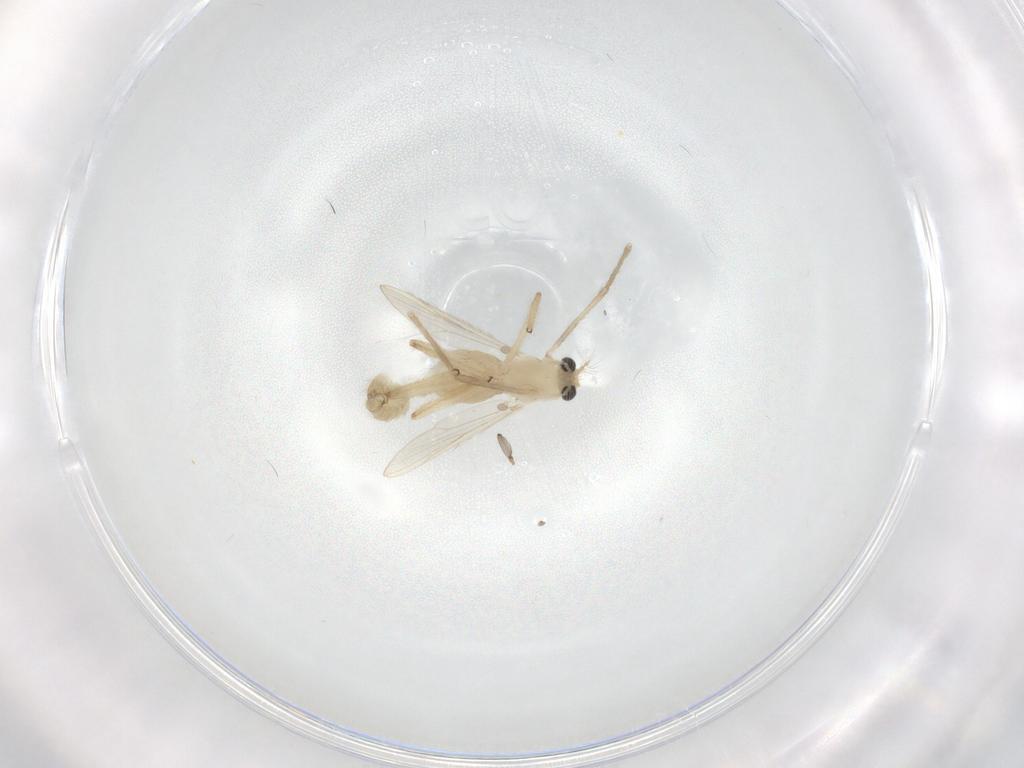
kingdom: Animalia
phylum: Arthropoda
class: Insecta
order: Diptera
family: Chironomidae
